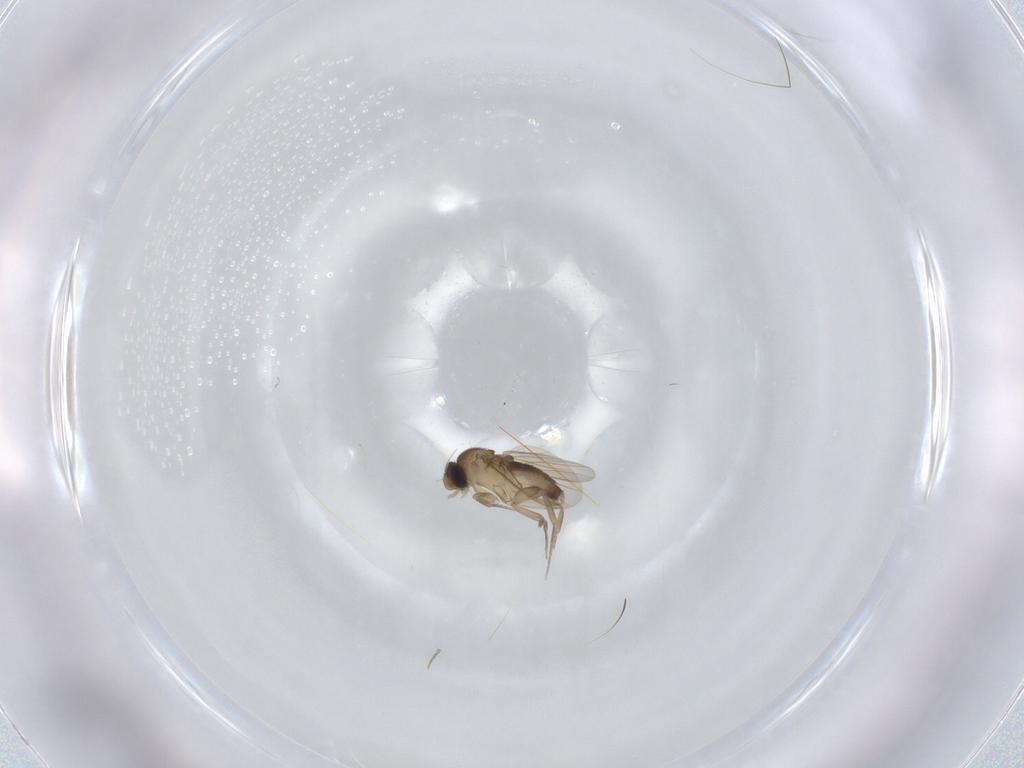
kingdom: Animalia
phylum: Arthropoda
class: Insecta
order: Diptera
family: Phoridae
